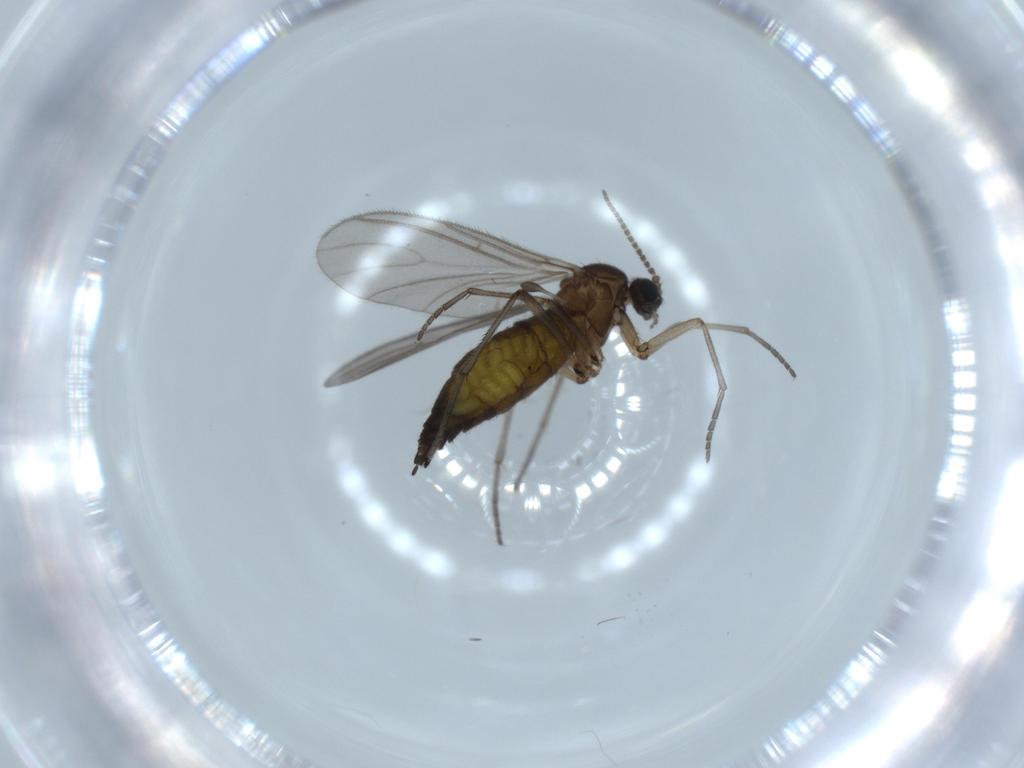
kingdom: Animalia
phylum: Arthropoda
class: Insecta
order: Diptera
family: Sciaridae
